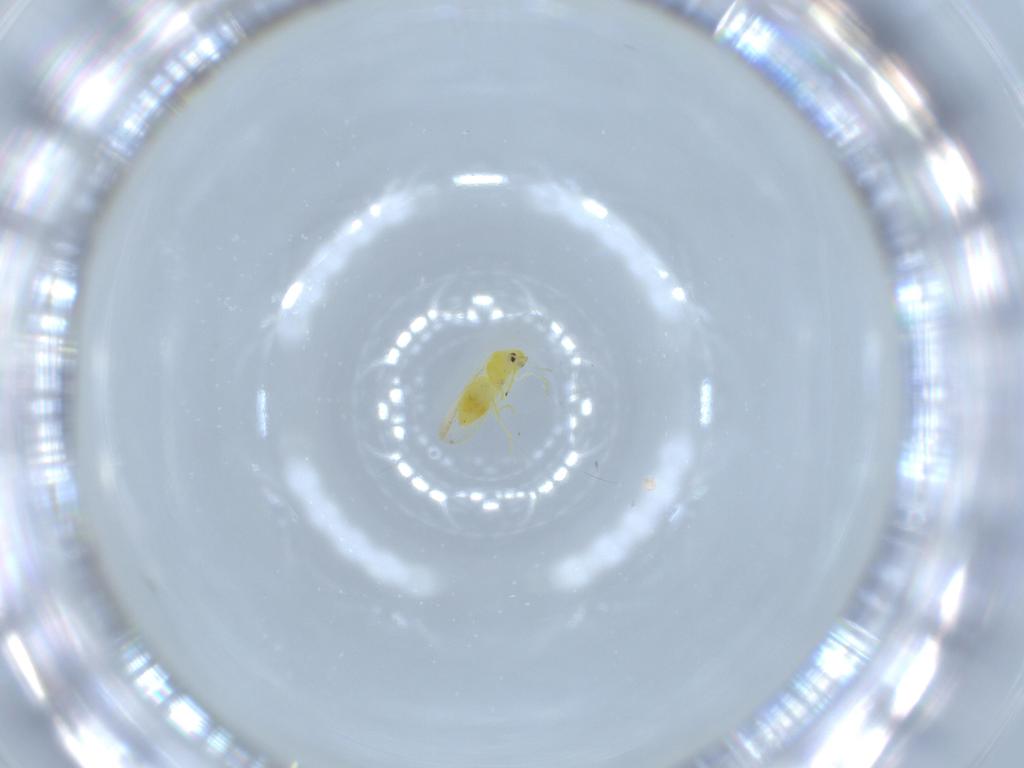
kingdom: Animalia
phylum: Arthropoda
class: Insecta
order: Hemiptera
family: Aleyrodidae
